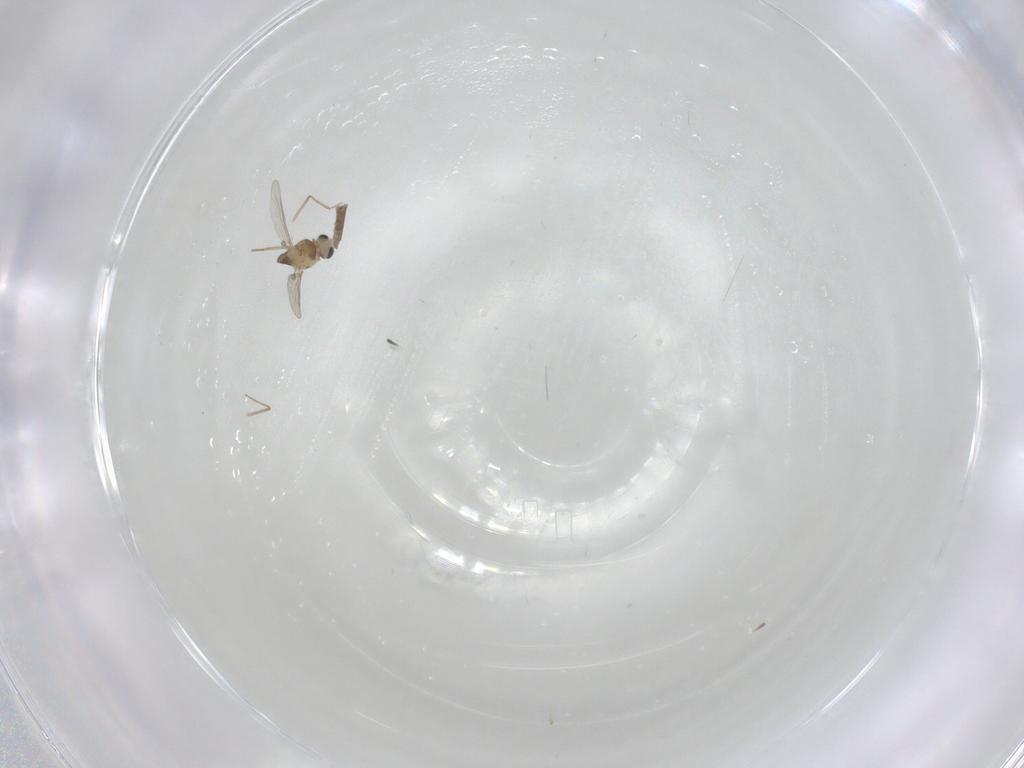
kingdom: Animalia
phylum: Arthropoda
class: Insecta
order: Diptera
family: Chironomidae
